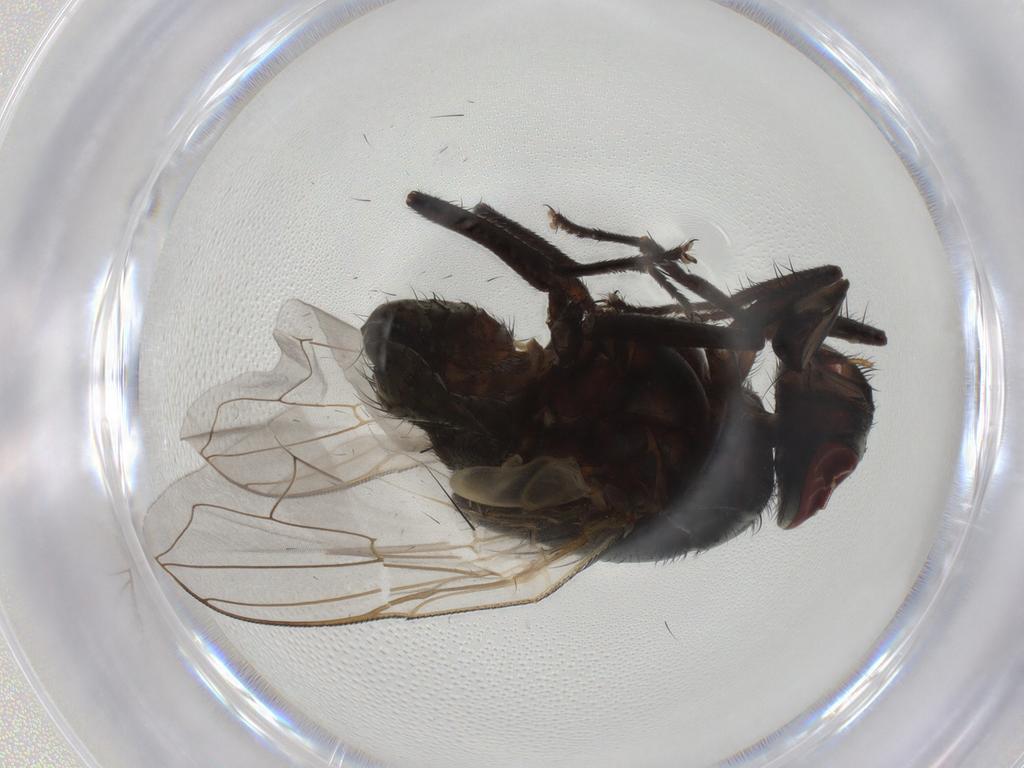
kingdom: Animalia
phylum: Arthropoda
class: Insecta
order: Diptera
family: Muscidae
